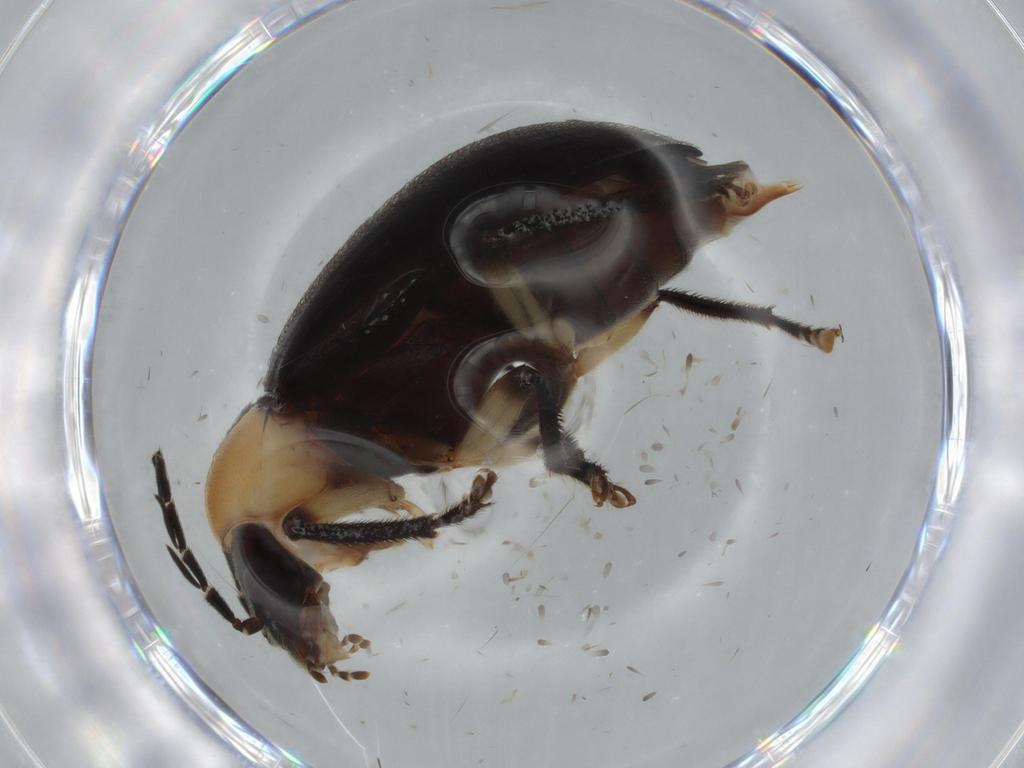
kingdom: Animalia
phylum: Arthropoda
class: Insecta
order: Coleoptera
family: Ptilodactylidae
